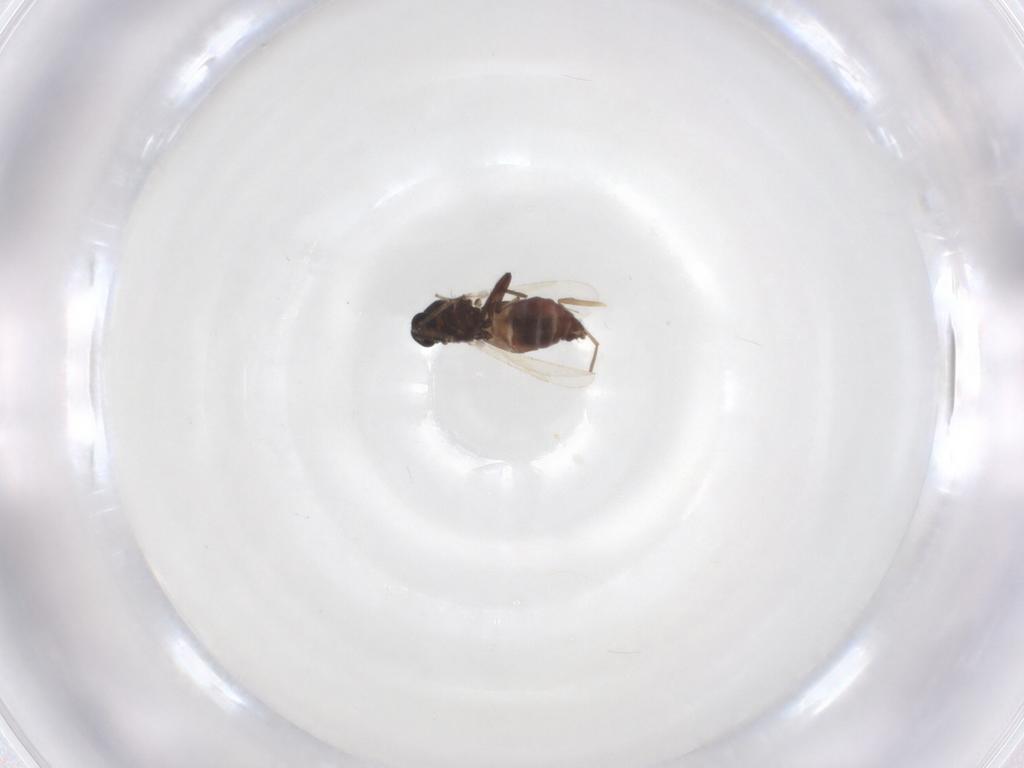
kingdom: Animalia
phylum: Arthropoda
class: Insecta
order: Diptera
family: Ceratopogonidae
